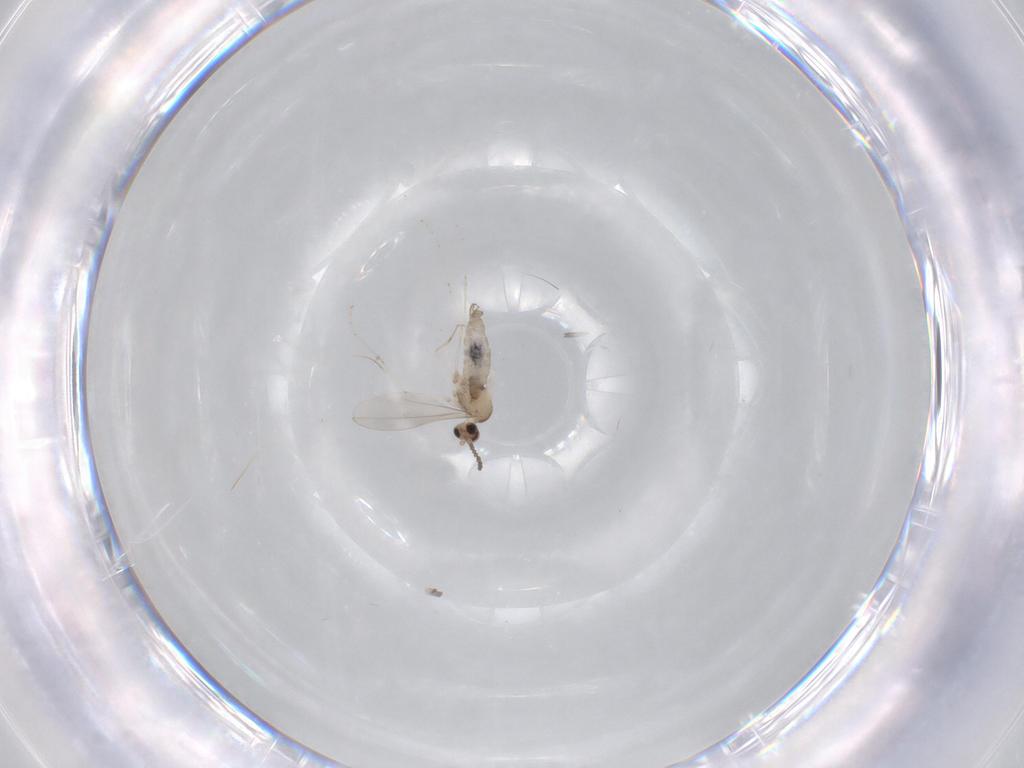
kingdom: Animalia
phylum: Arthropoda
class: Insecta
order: Diptera
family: Cecidomyiidae
